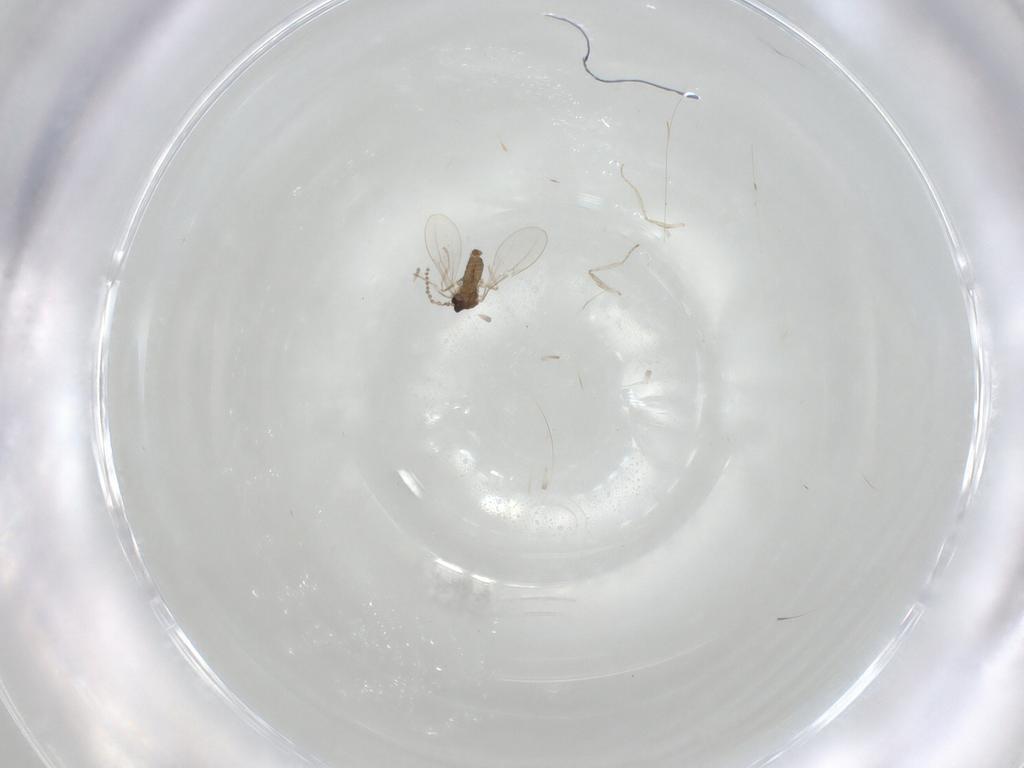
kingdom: Animalia
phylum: Arthropoda
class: Insecta
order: Diptera
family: Cecidomyiidae
